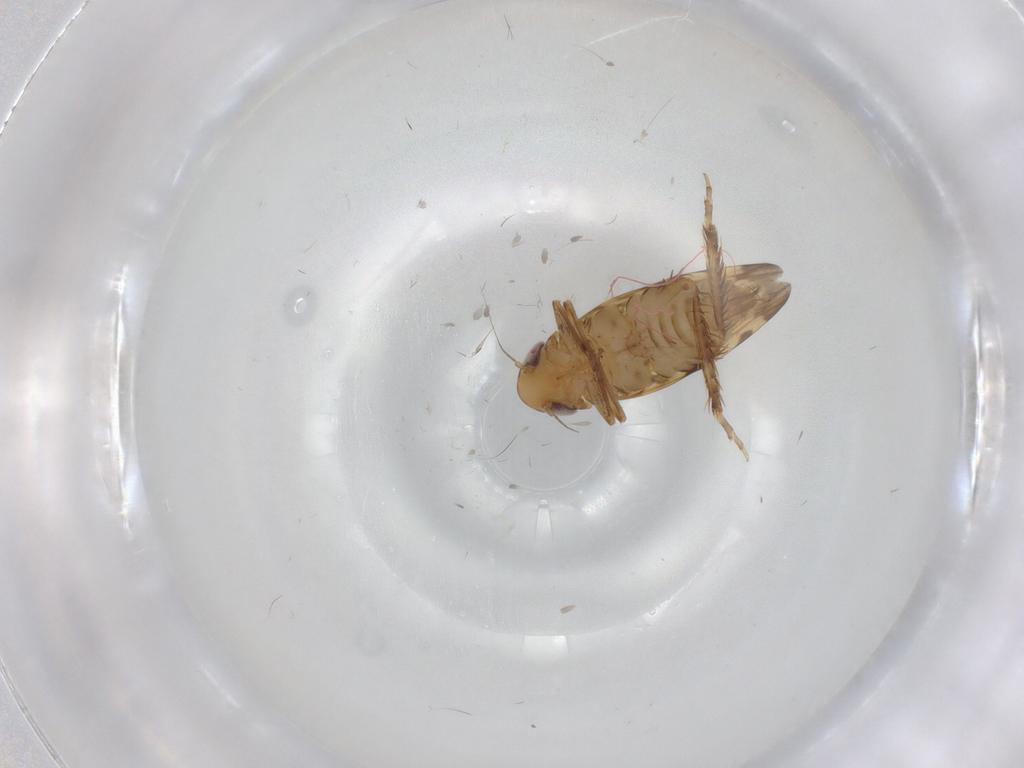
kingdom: Animalia
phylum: Arthropoda
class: Insecta
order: Hemiptera
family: Cicadellidae
